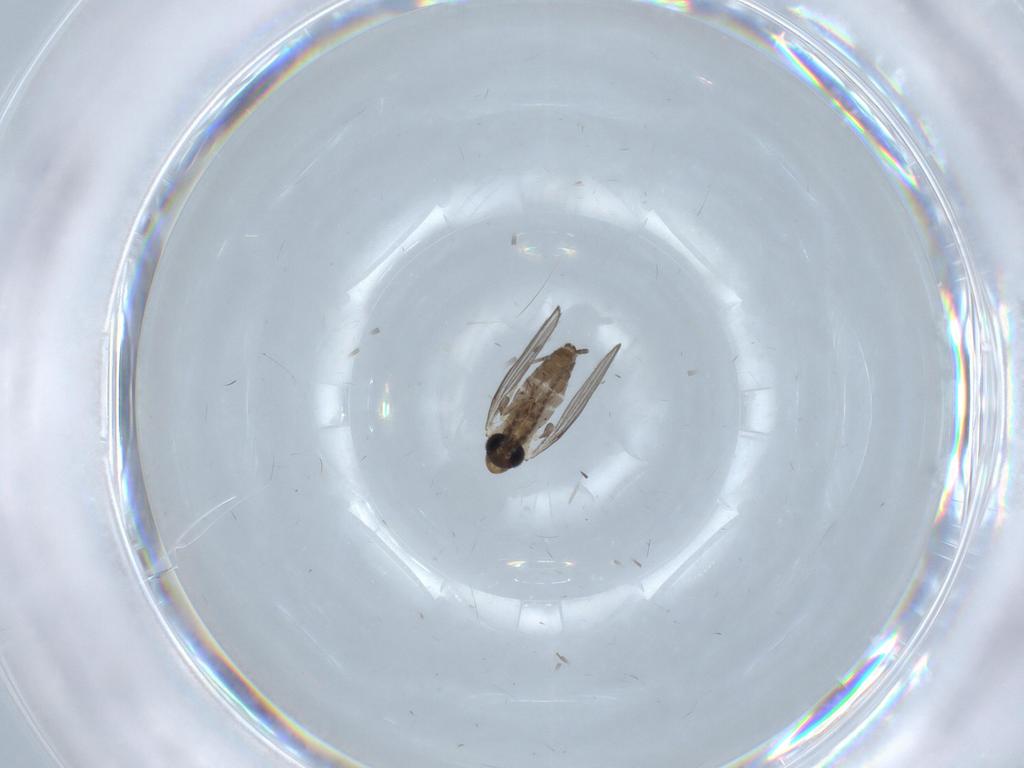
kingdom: Animalia
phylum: Arthropoda
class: Insecta
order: Diptera
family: Psychodidae
